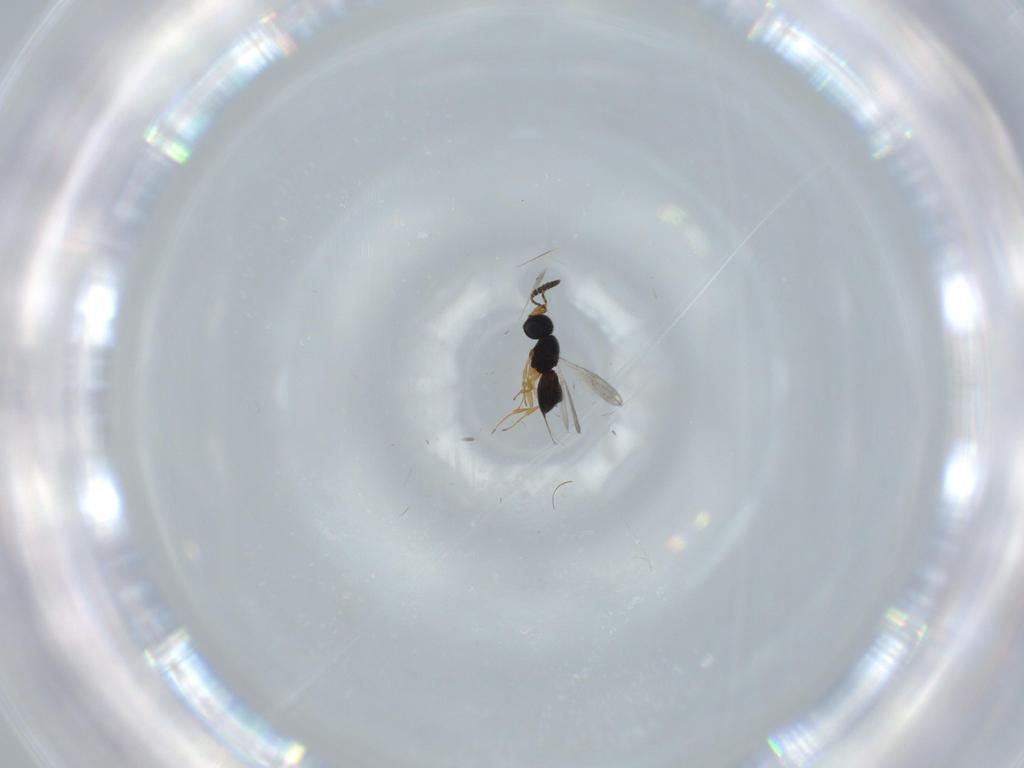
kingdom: Animalia
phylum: Arthropoda
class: Insecta
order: Hymenoptera
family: Scelionidae
